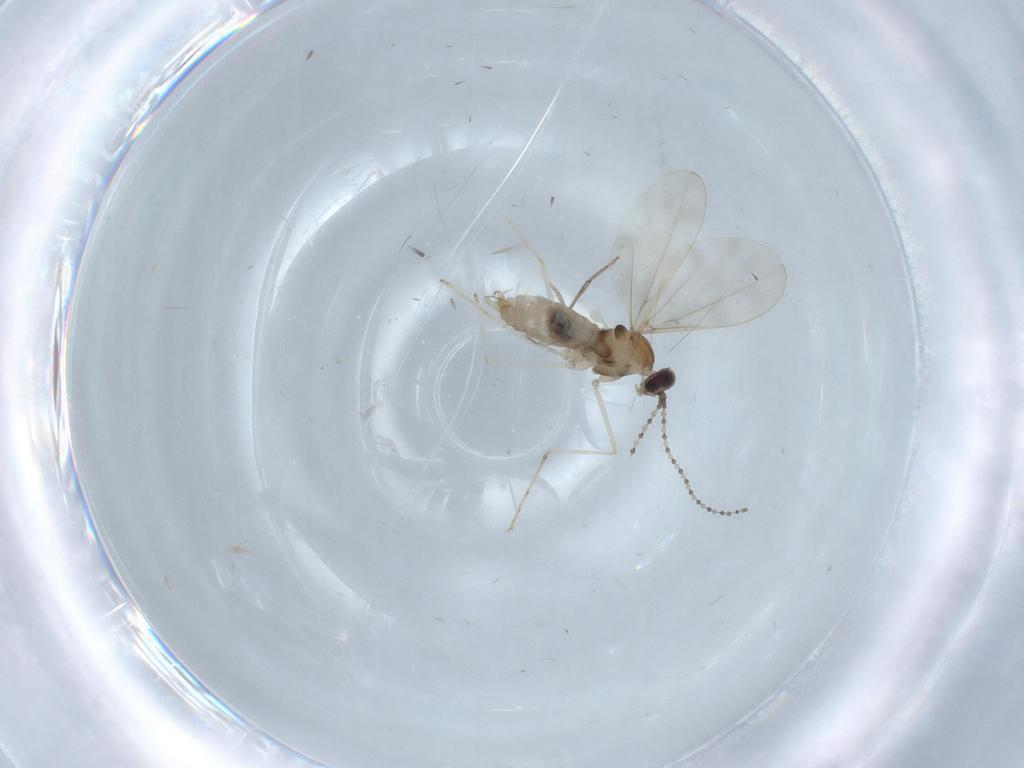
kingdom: Animalia
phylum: Arthropoda
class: Insecta
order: Diptera
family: Cecidomyiidae
